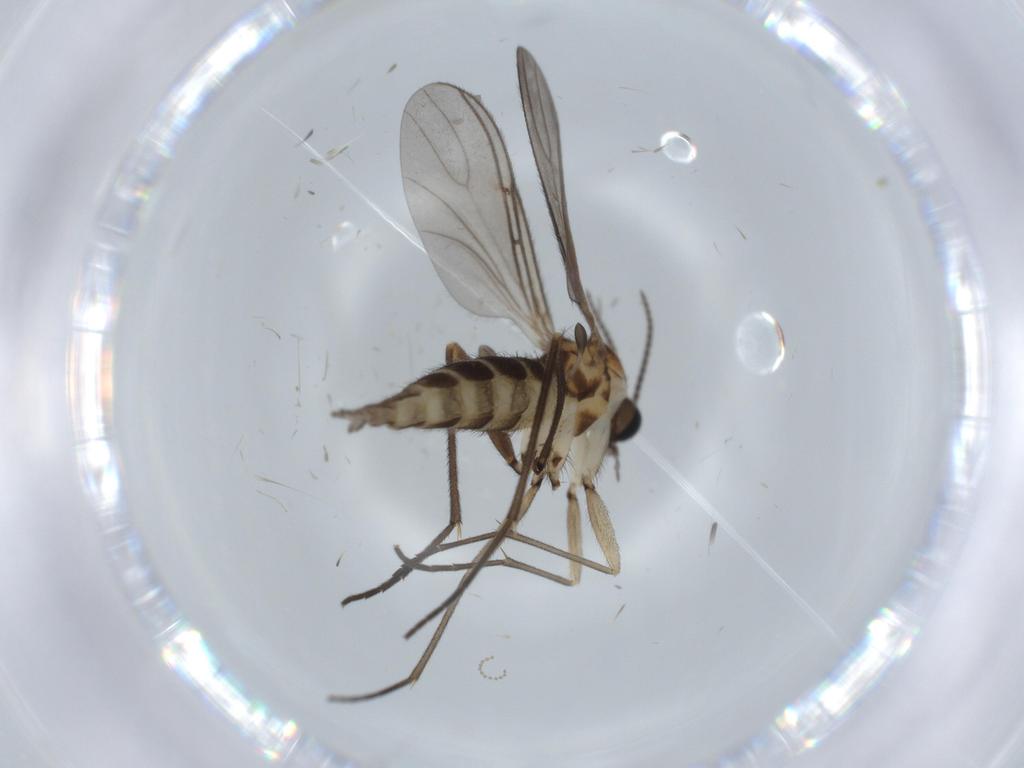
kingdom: Animalia
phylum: Arthropoda
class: Insecta
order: Diptera
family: Sciaridae
